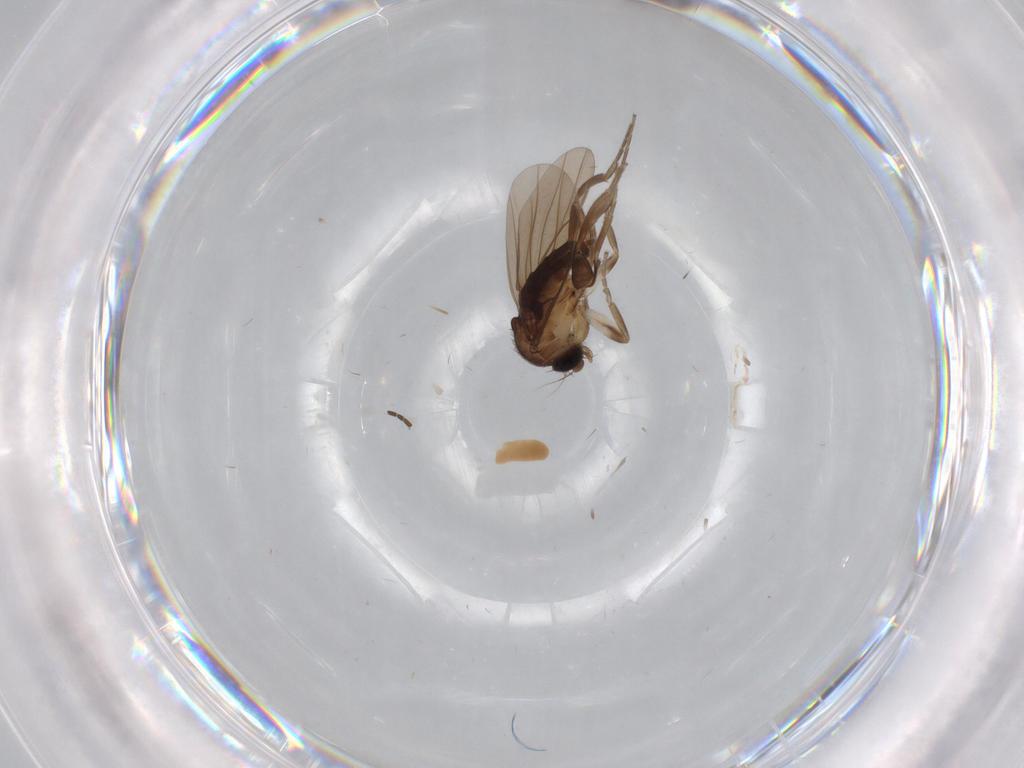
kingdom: Animalia
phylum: Arthropoda
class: Insecta
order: Diptera
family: Chironomidae
